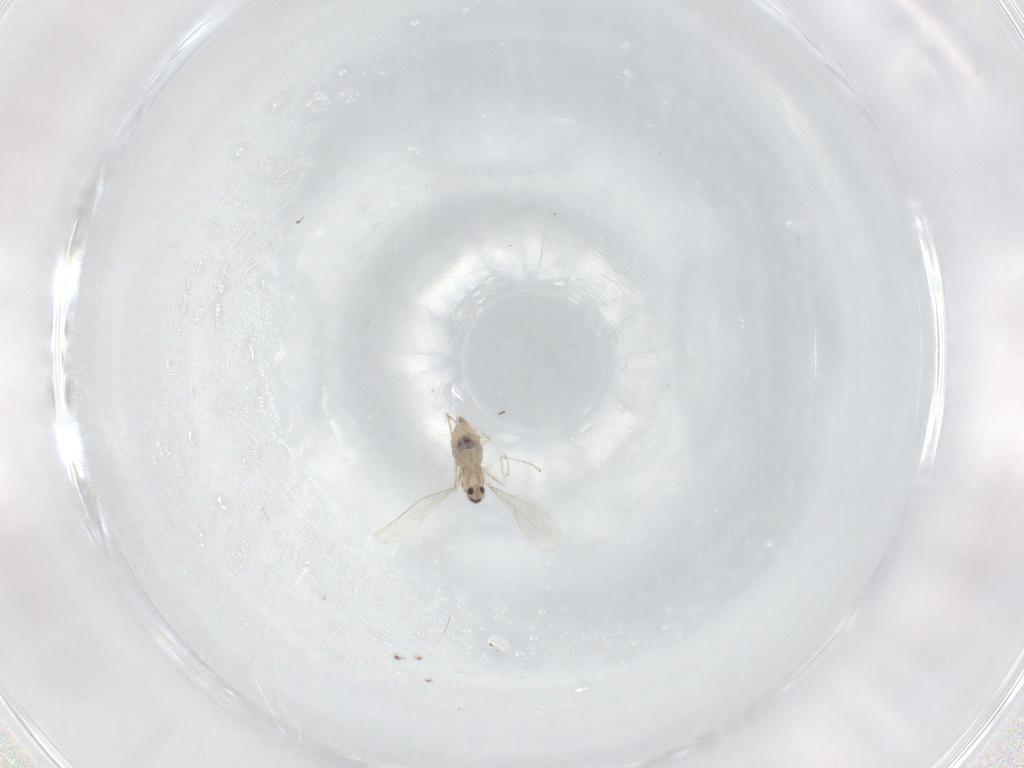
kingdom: Animalia
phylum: Arthropoda
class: Insecta
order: Diptera
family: Cecidomyiidae
